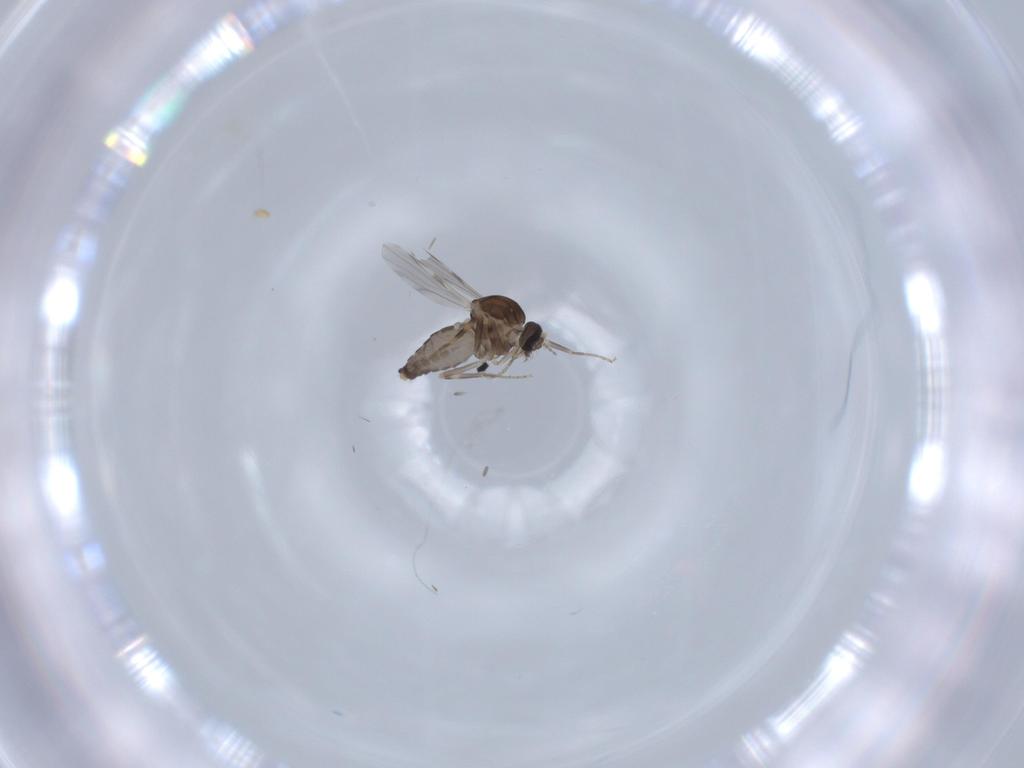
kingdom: Animalia
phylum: Arthropoda
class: Insecta
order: Diptera
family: Ceratopogonidae
